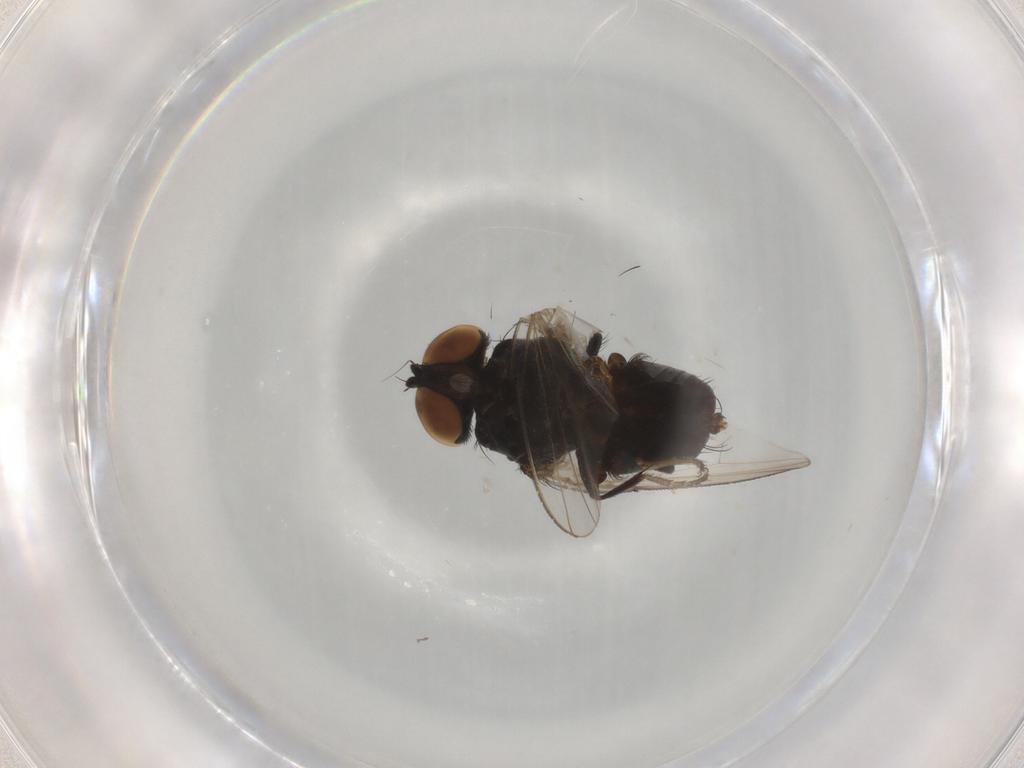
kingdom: Animalia
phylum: Arthropoda
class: Insecta
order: Diptera
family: Milichiidae
